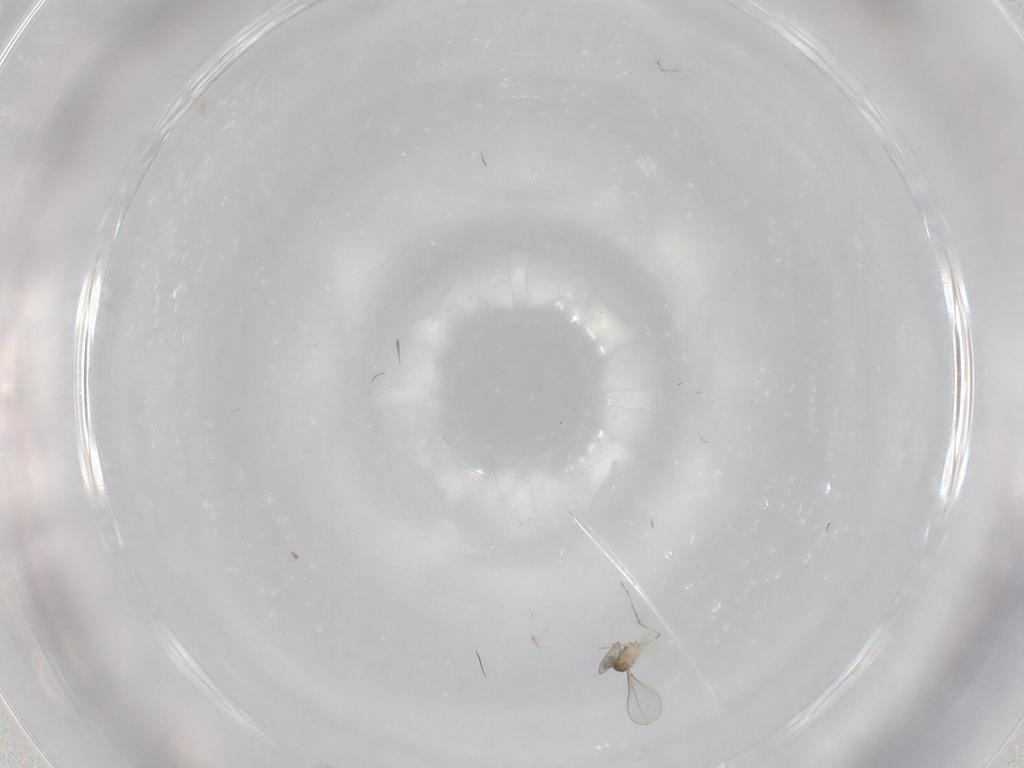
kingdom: Animalia
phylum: Arthropoda
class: Insecta
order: Diptera
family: Cecidomyiidae
